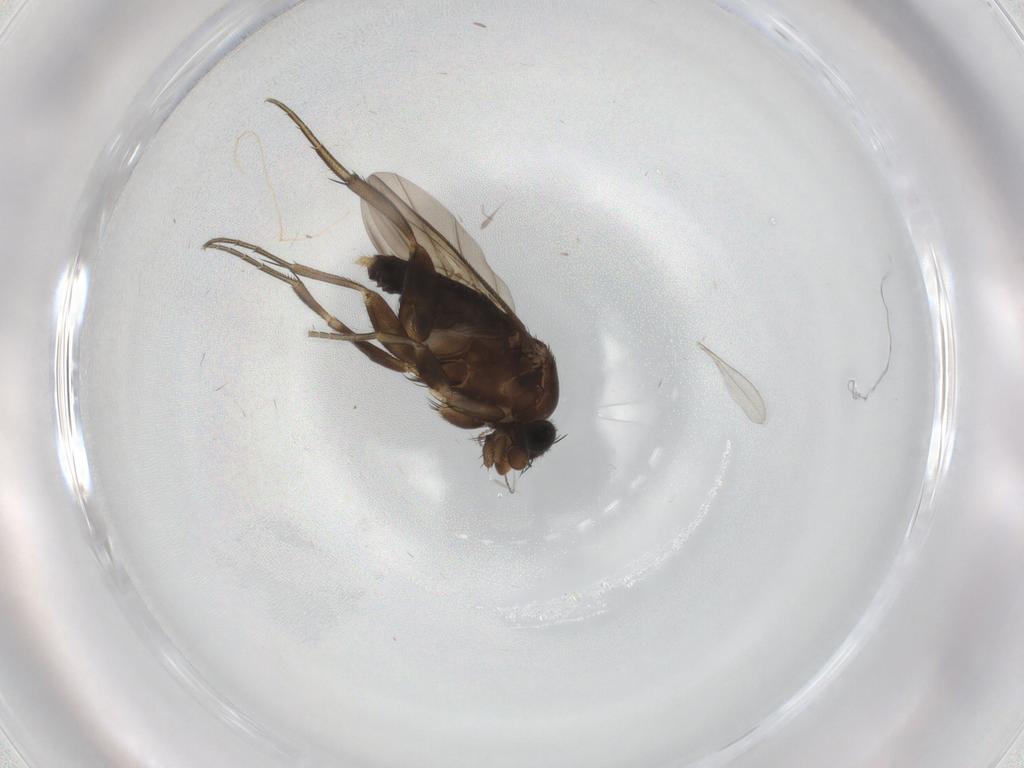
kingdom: Animalia
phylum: Arthropoda
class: Insecta
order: Diptera
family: Phoridae
